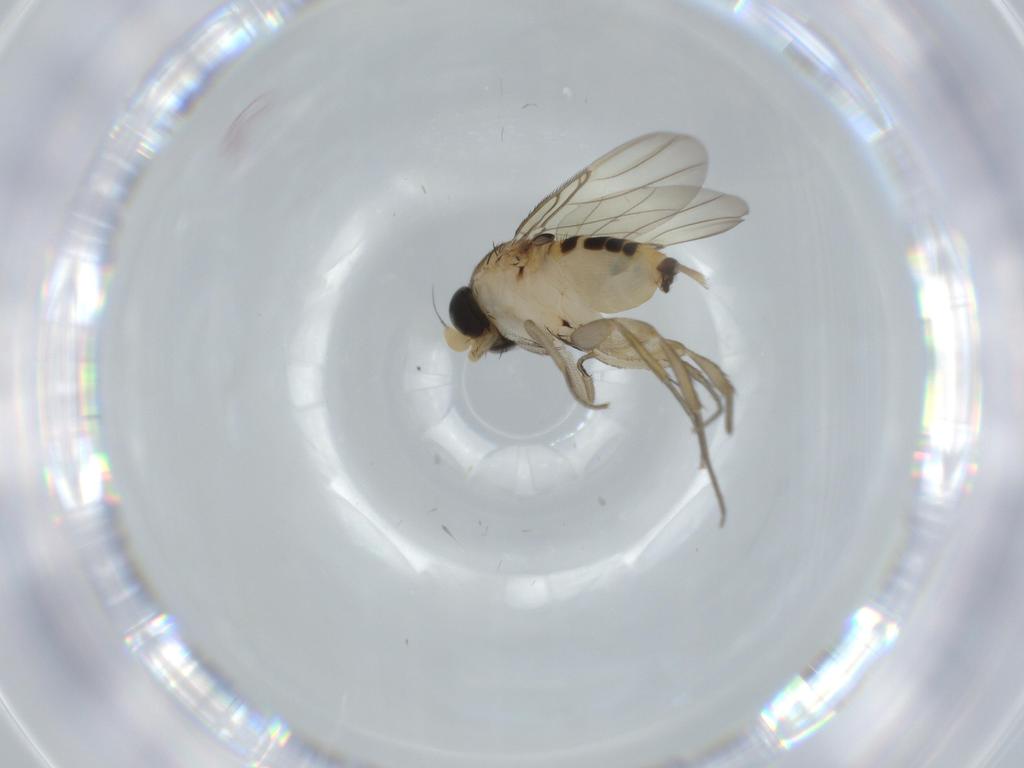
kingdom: Animalia
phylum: Arthropoda
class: Insecta
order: Diptera
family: Phoridae
